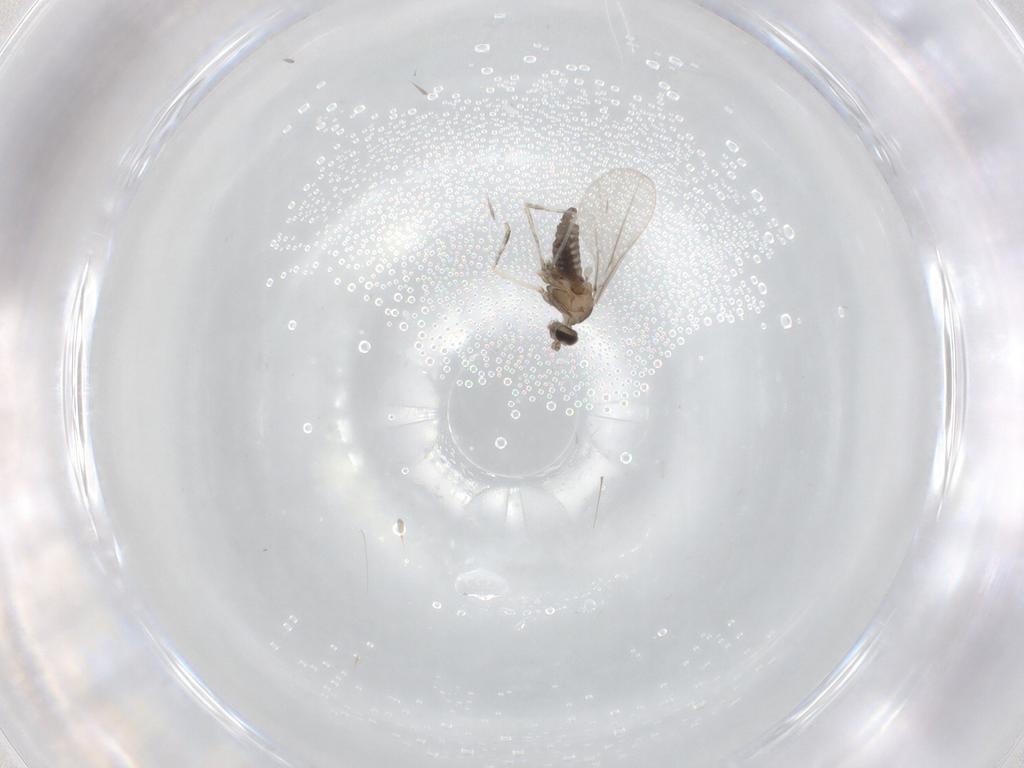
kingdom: Animalia
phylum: Arthropoda
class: Insecta
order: Diptera
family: Cecidomyiidae
